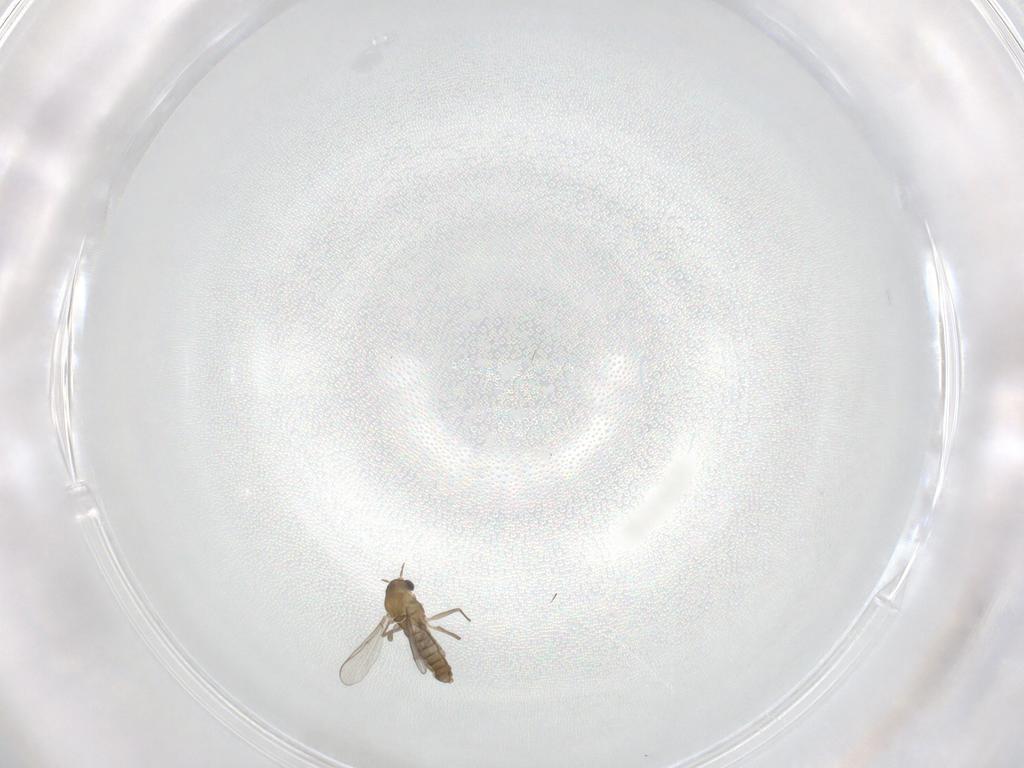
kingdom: Animalia
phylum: Arthropoda
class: Insecta
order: Diptera
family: Chironomidae
